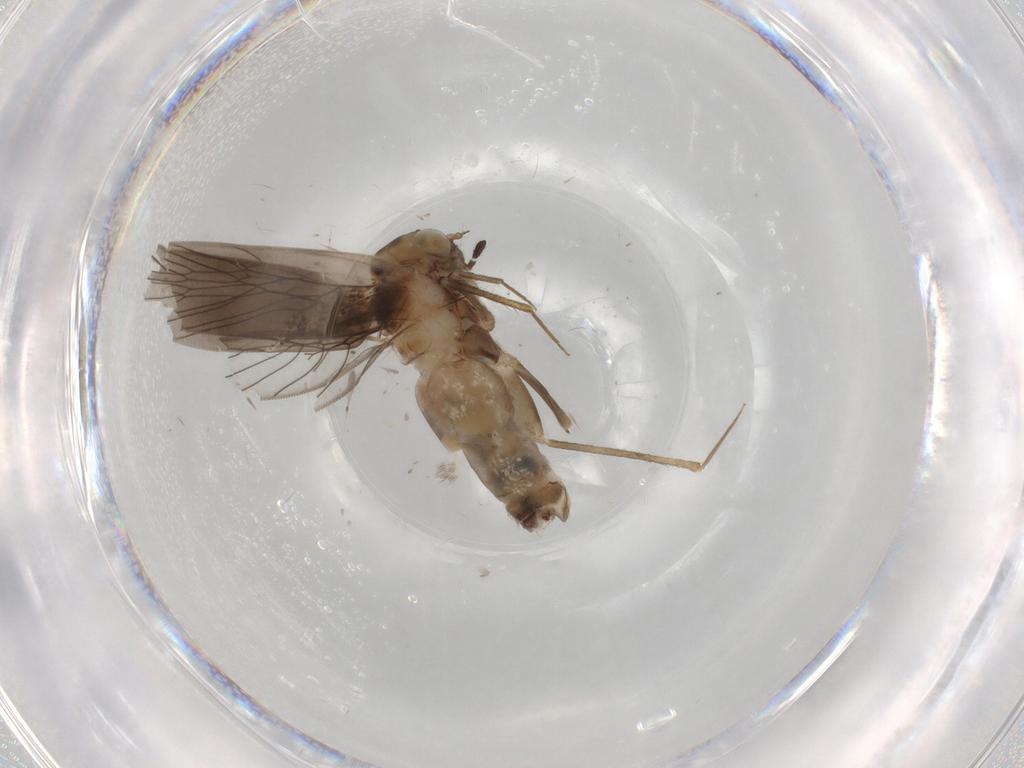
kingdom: Animalia
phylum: Arthropoda
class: Insecta
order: Psocodea
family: Lepidopsocidae
